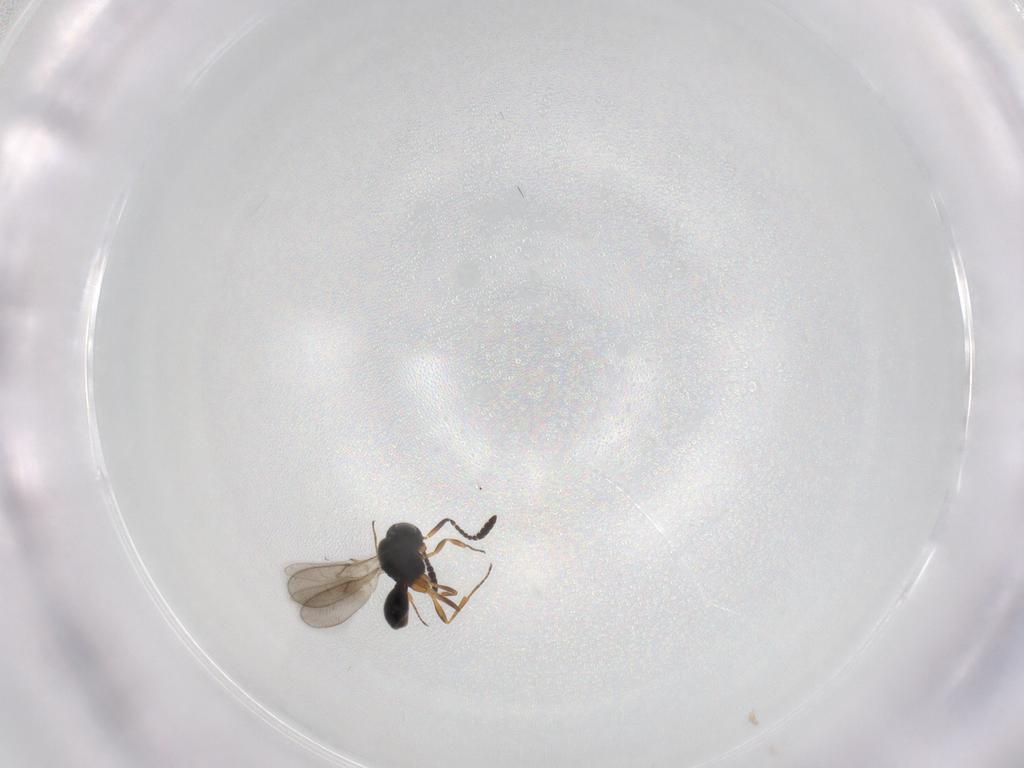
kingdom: Animalia
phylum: Arthropoda
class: Insecta
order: Hymenoptera
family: Scelionidae
